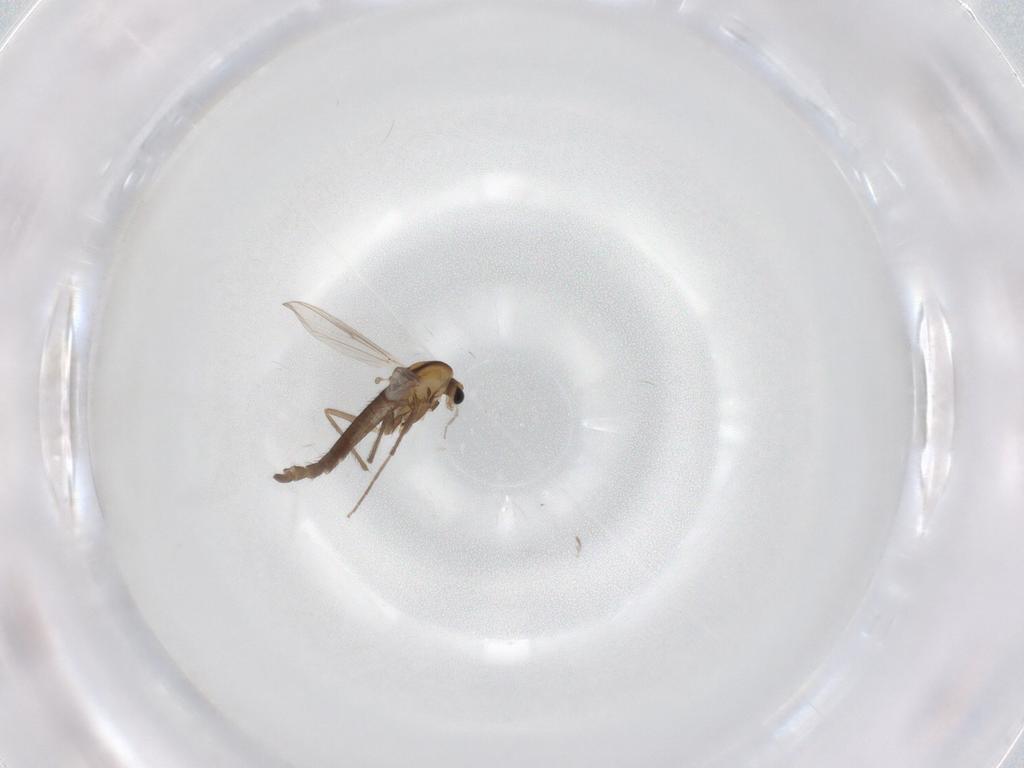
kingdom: Animalia
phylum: Arthropoda
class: Insecta
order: Diptera
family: Chironomidae
